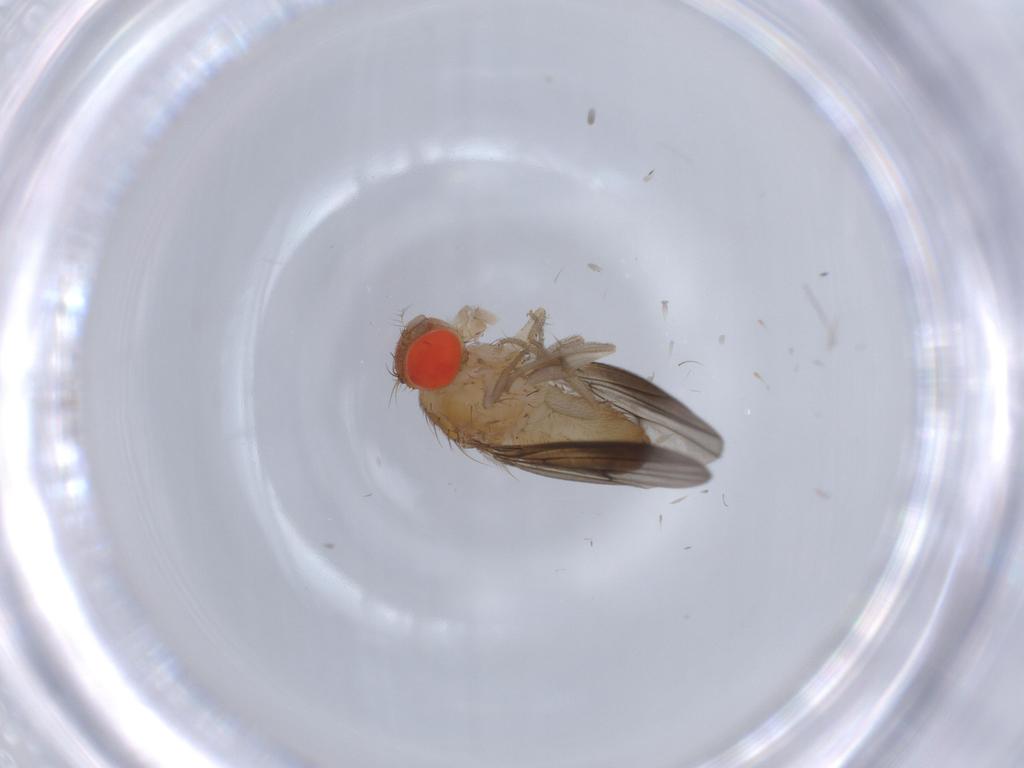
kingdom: Animalia
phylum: Arthropoda
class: Insecta
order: Diptera
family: Drosophilidae
